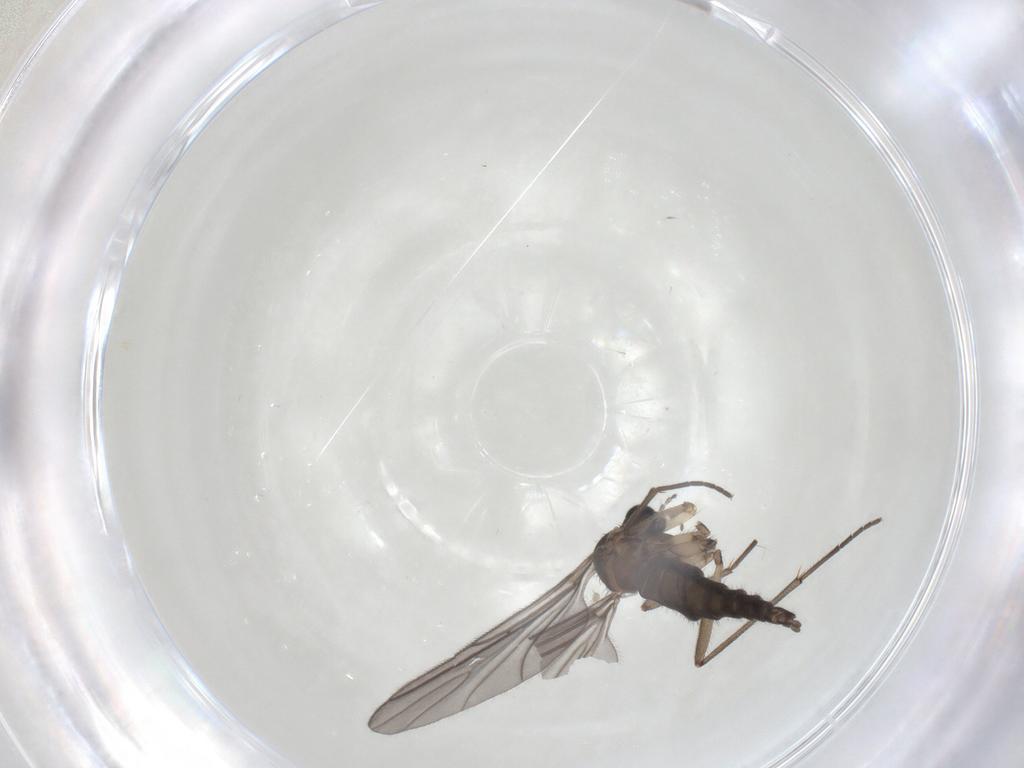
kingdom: Animalia
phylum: Arthropoda
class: Insecta
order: Diptera
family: Sciaridae
